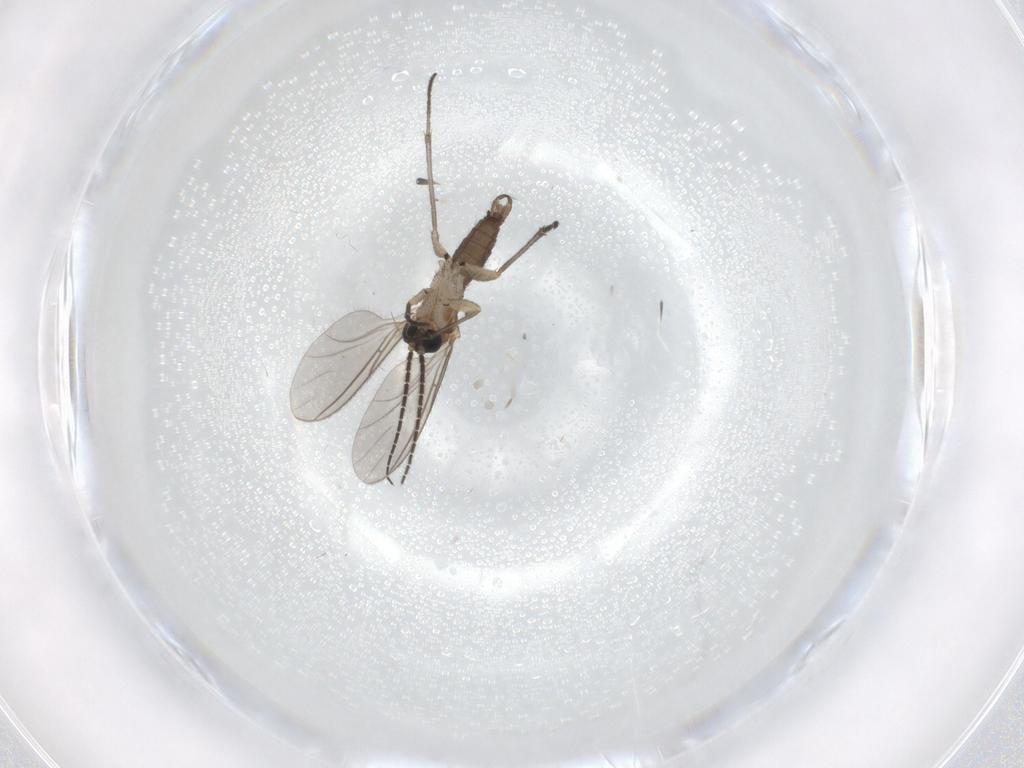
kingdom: Animalia
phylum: Arthropoda
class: Insecta
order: Diptera
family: Sciaridae
